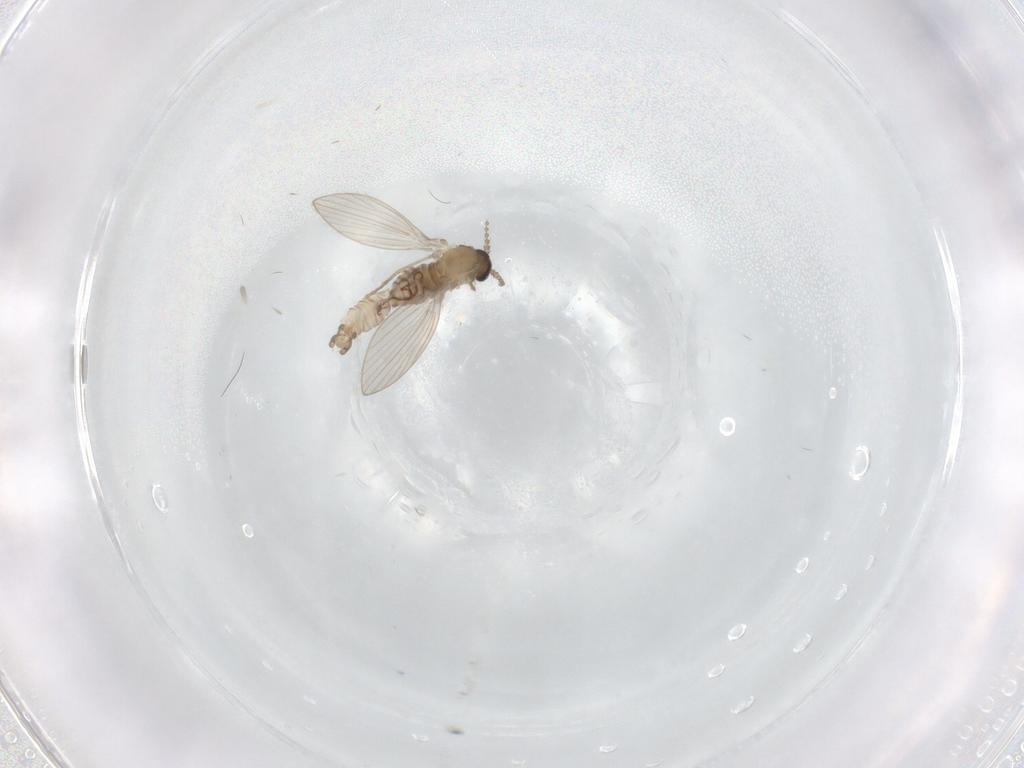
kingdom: Animalia
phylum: Arthropoda
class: Insecta
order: Diptera
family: Psychodidae
